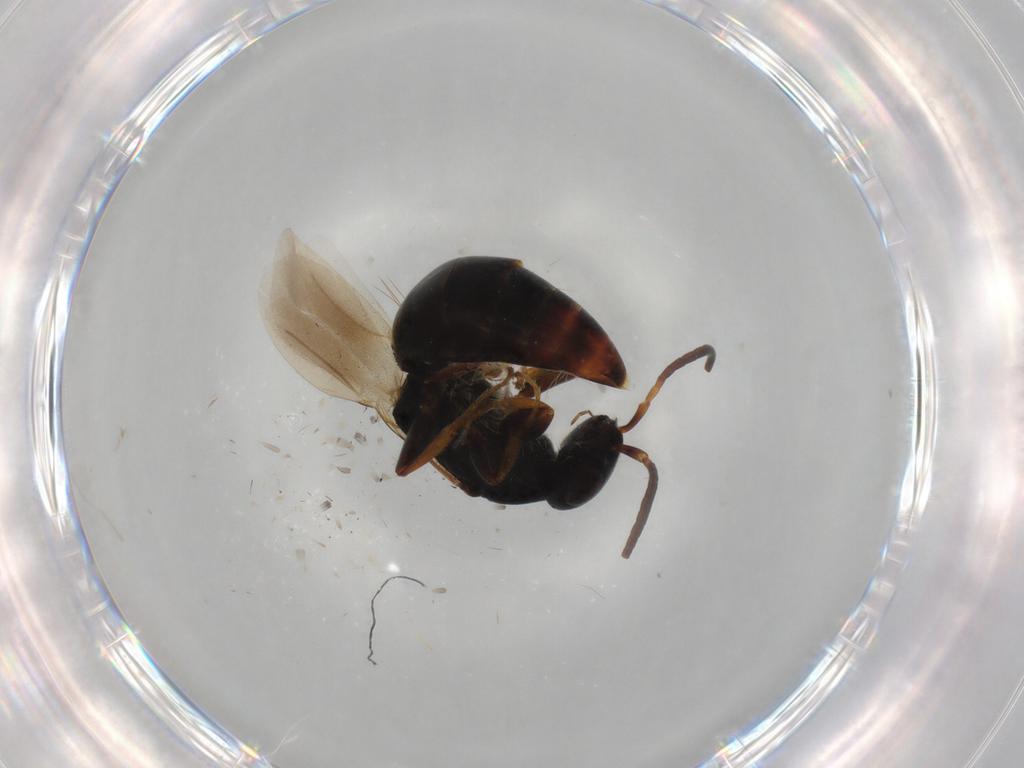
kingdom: Animalia
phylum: Arthropoda
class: Insecta
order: Hymenoptera
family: Bethylidae
